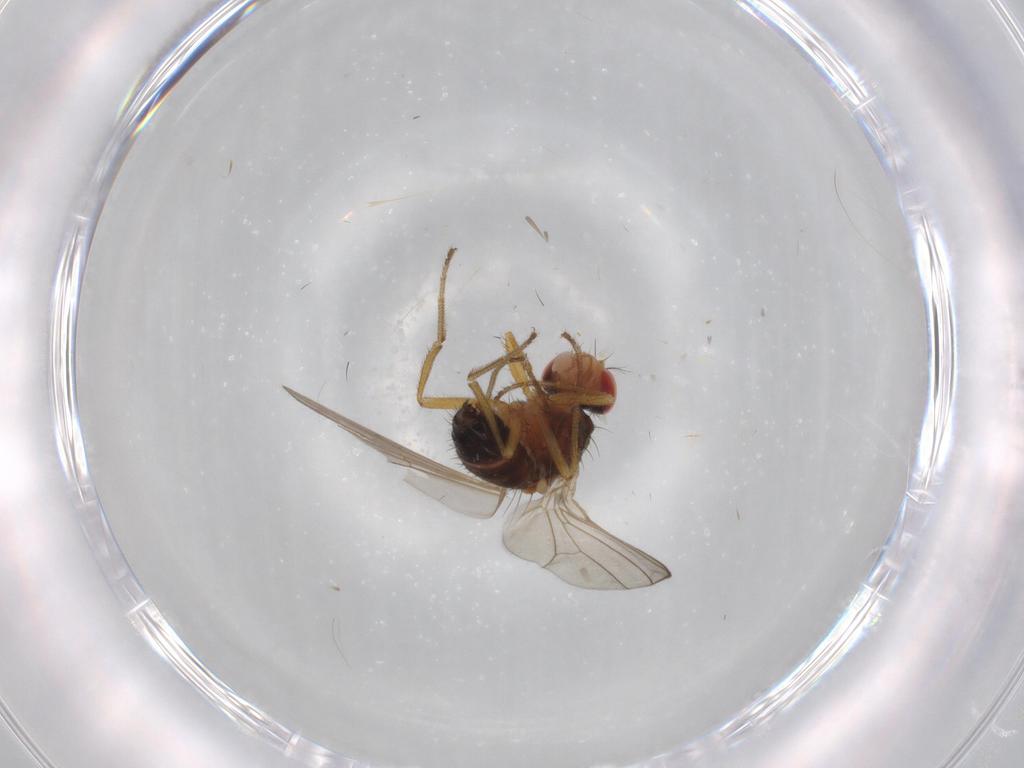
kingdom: Animalia
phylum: Arthropoda
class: Insecta
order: Diptera
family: Drosophilidae
